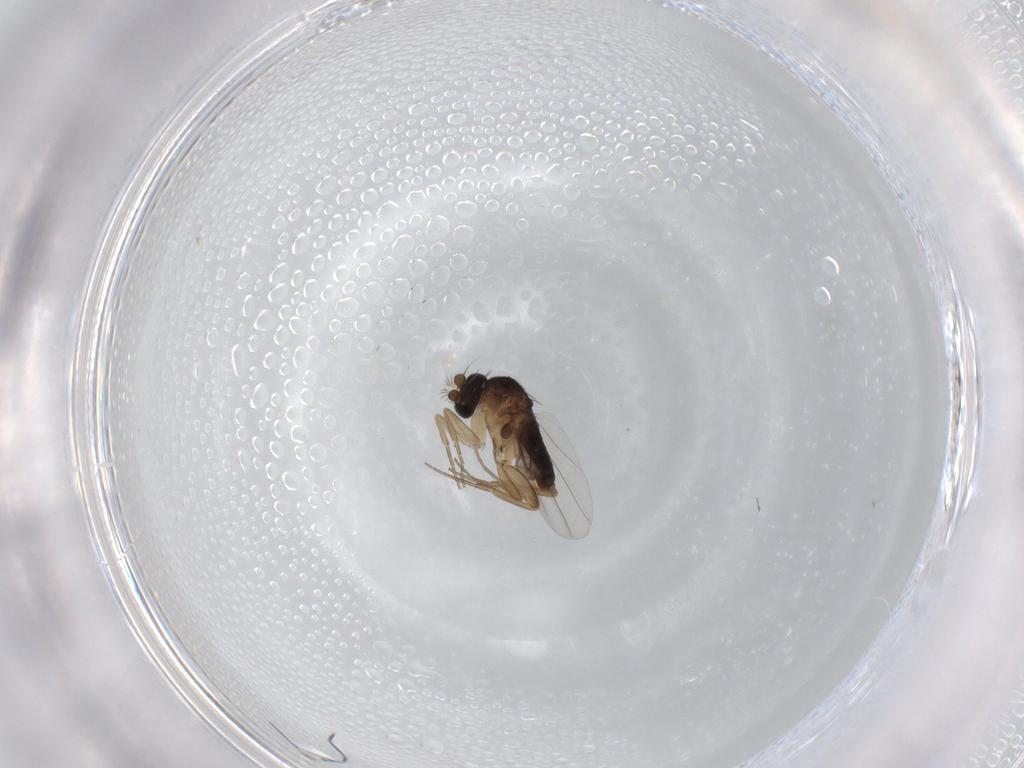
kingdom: Animalia
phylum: Arthropoda
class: Insecta
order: Diptera
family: Phoridae
